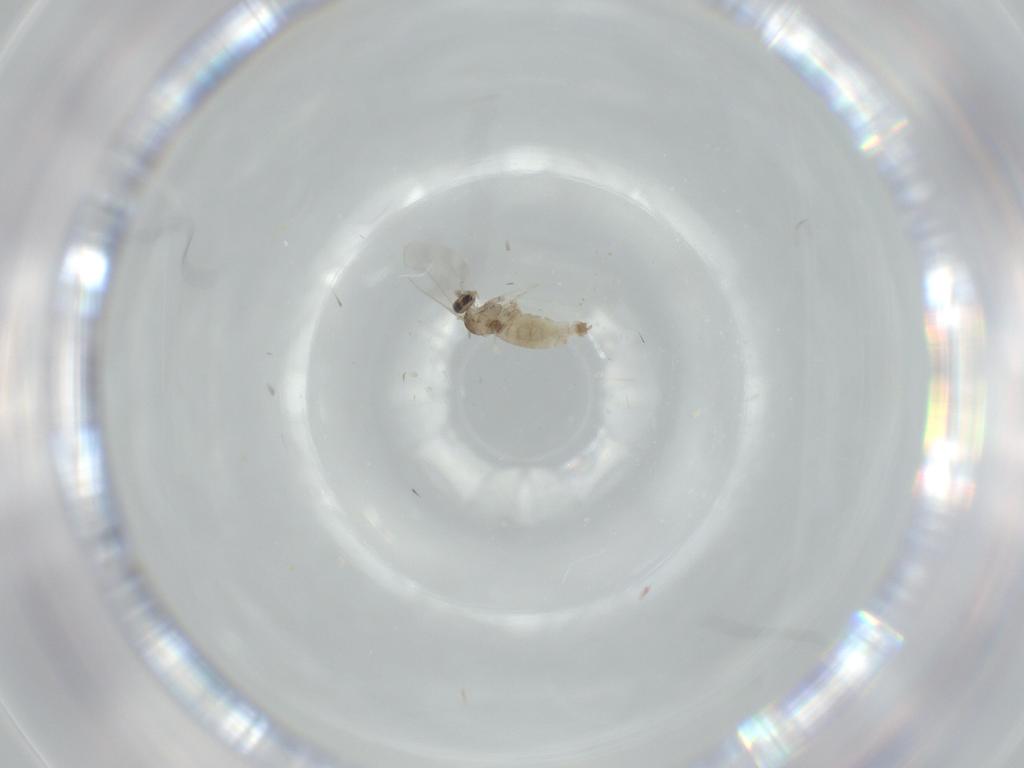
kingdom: Animalia
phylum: Arthropoda
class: Insecta
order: Diptera
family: Cecidomyiidae
